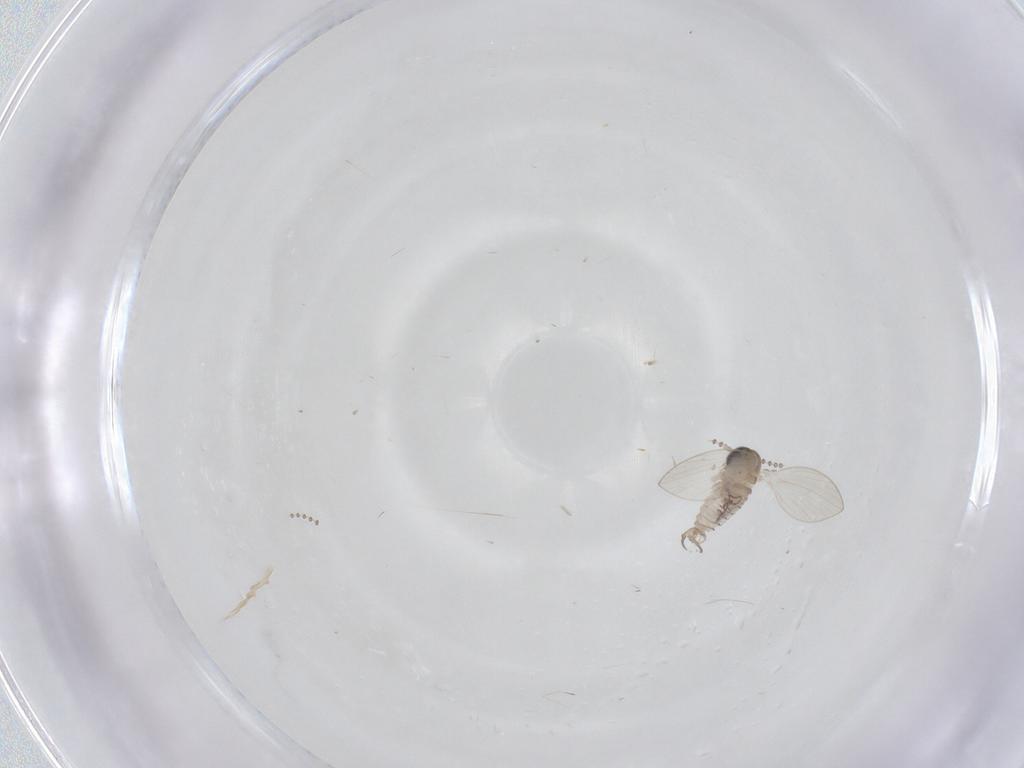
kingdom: Animalia
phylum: Arthropoda
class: Insecta
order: Diptera
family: Psychodidae
